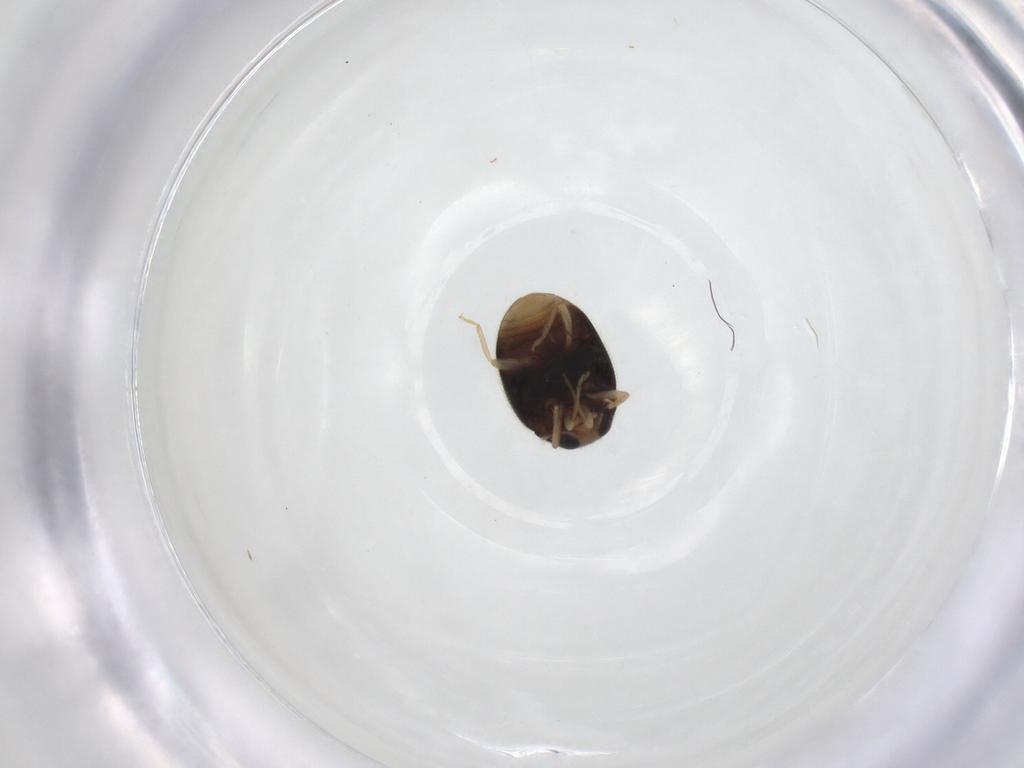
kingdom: Animalia
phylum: Arthropoda
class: Insecta
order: Coleoptera
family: Coccinellidae
